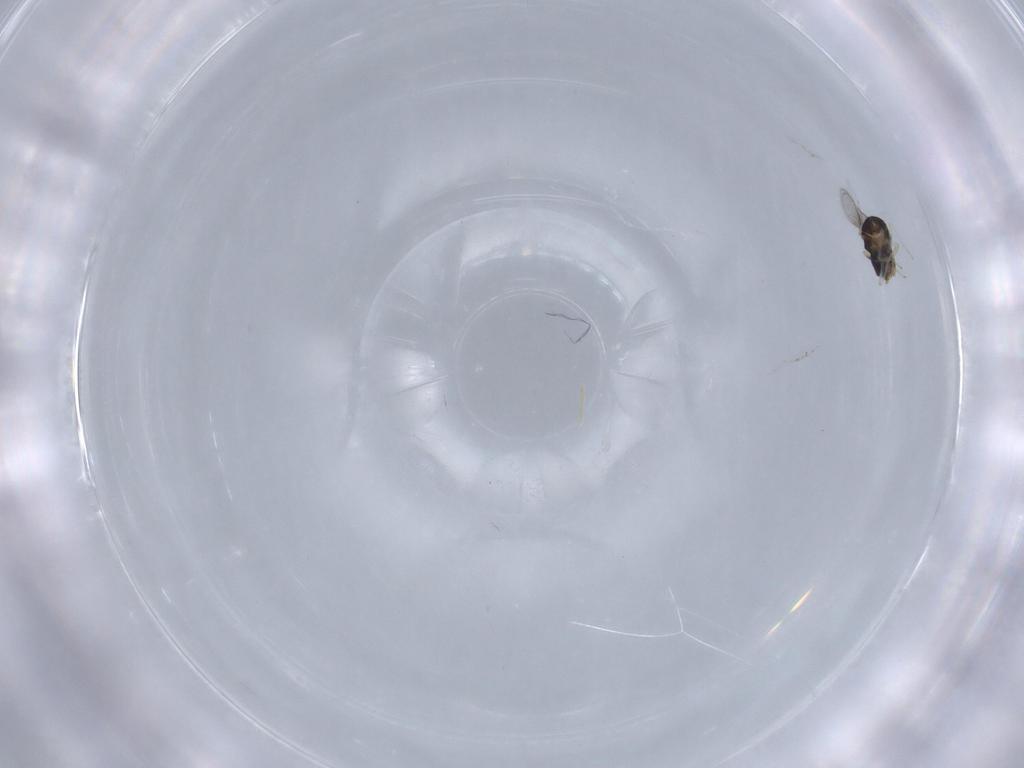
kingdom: Animalia
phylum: Arthropoda
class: Insecta
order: Hymenoptera
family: Aphelinidae
